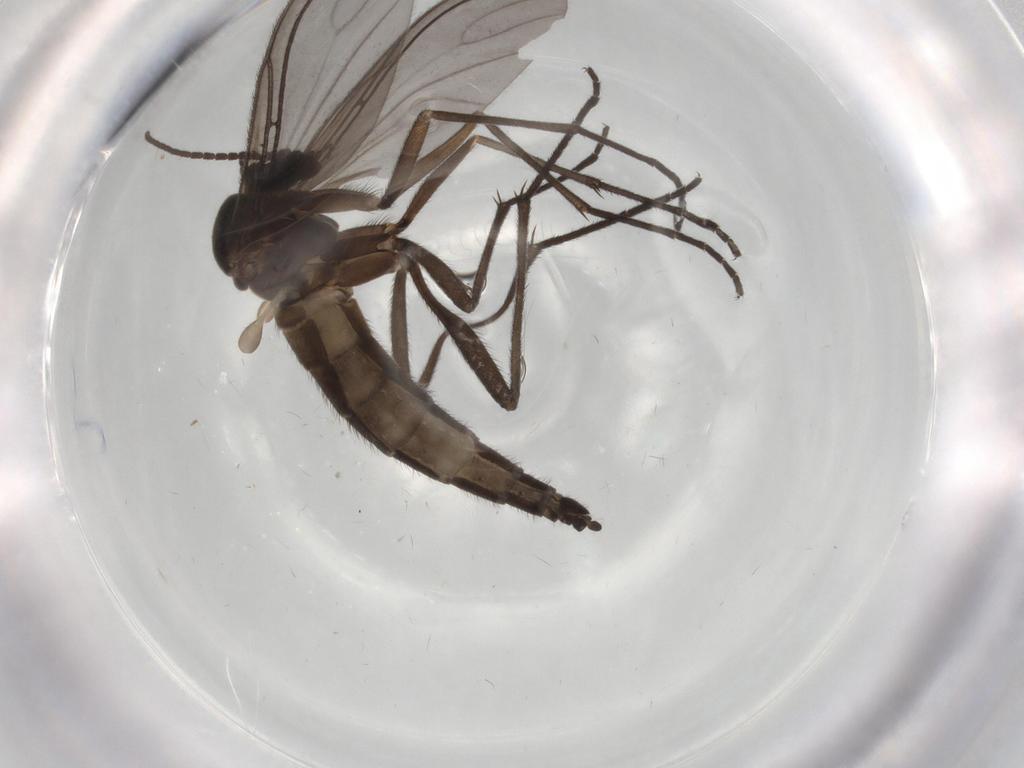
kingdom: Animalia
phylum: Arthropoda
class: Insecta
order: Diptera
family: Sciaridae
